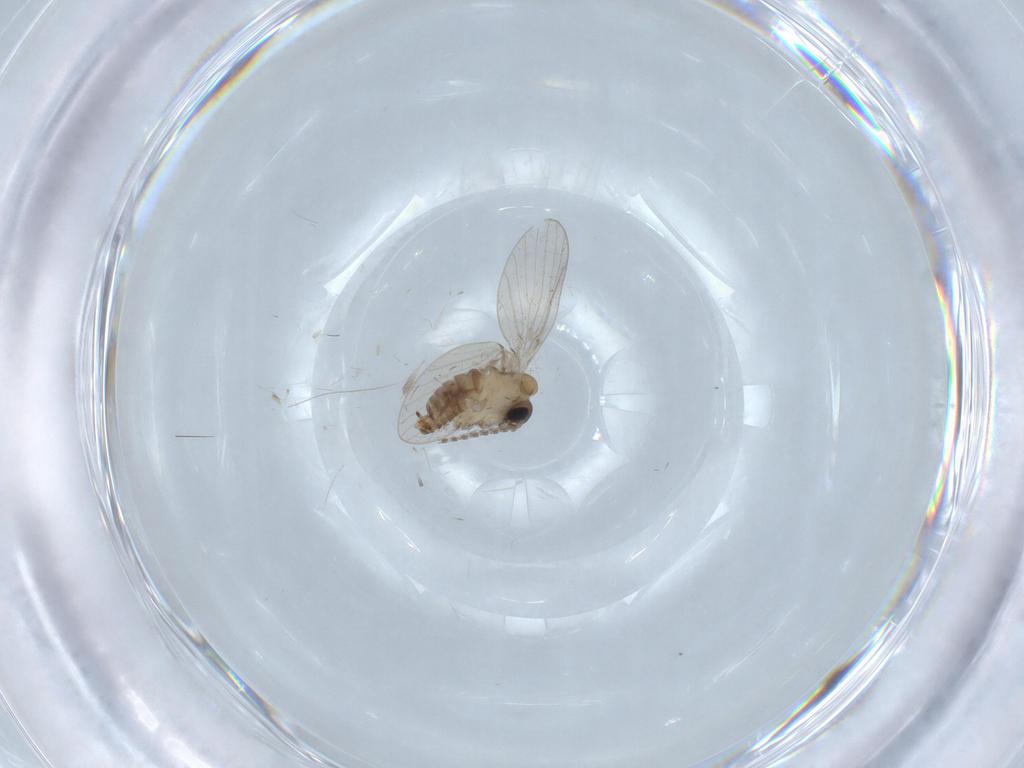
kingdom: Animalia
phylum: Arthropoda
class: Insecta
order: Diptera
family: Psychodidae
